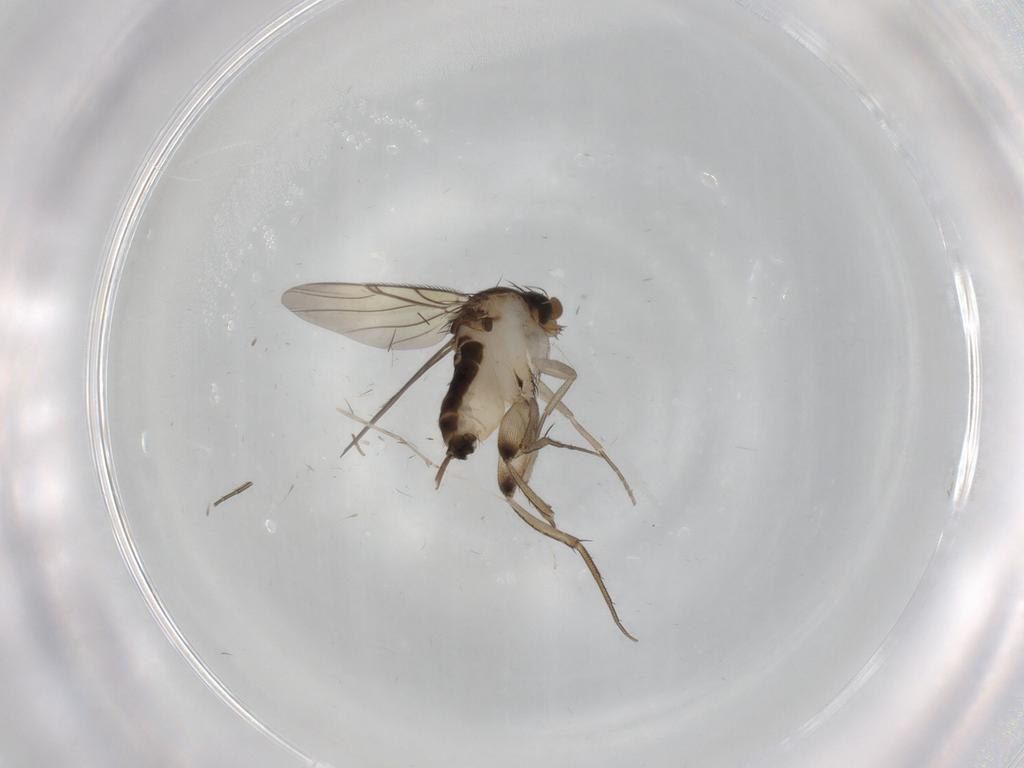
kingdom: Animalia
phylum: Arthropoda
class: Insecta
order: Diptera
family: Phoridae
